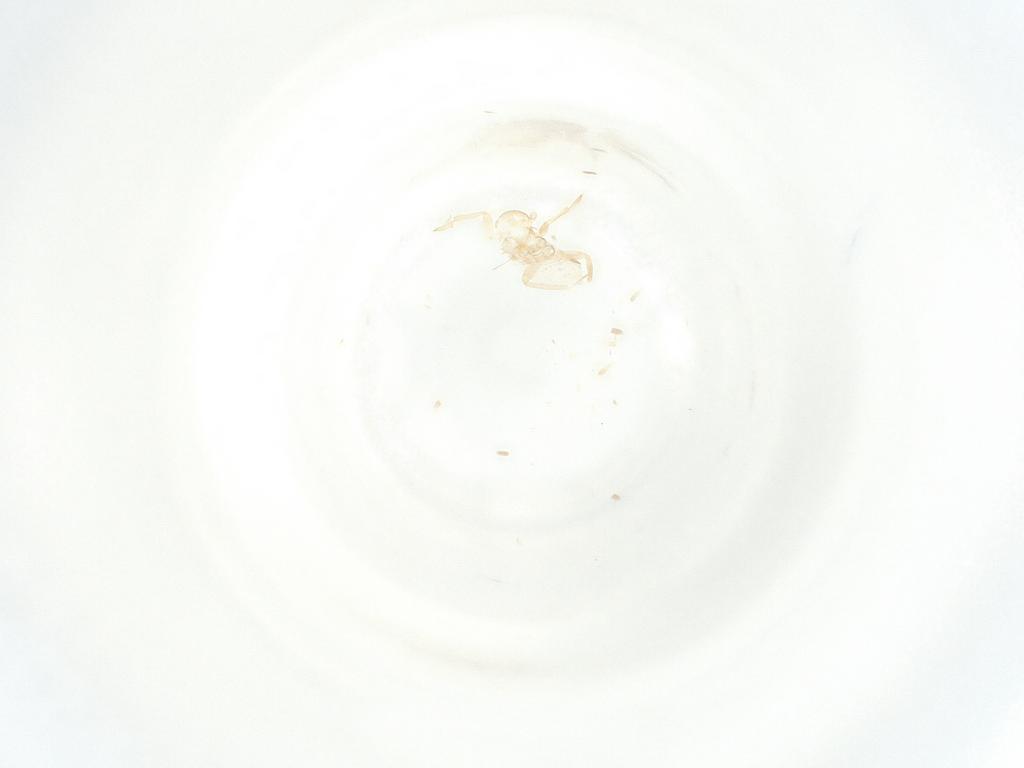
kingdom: Animalia
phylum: Arthropoda
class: Insecta
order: Hemiptera
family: Miridae
